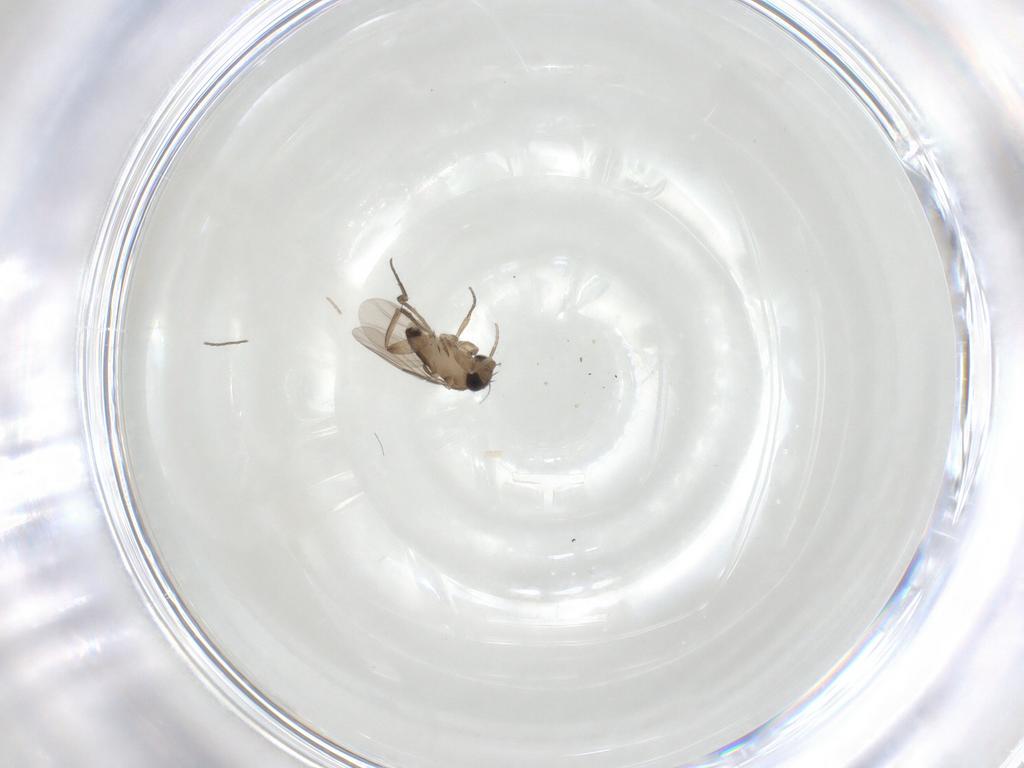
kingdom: Animalia
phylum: Arthropoda
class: Insecta
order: Diptera
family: Phoridae
